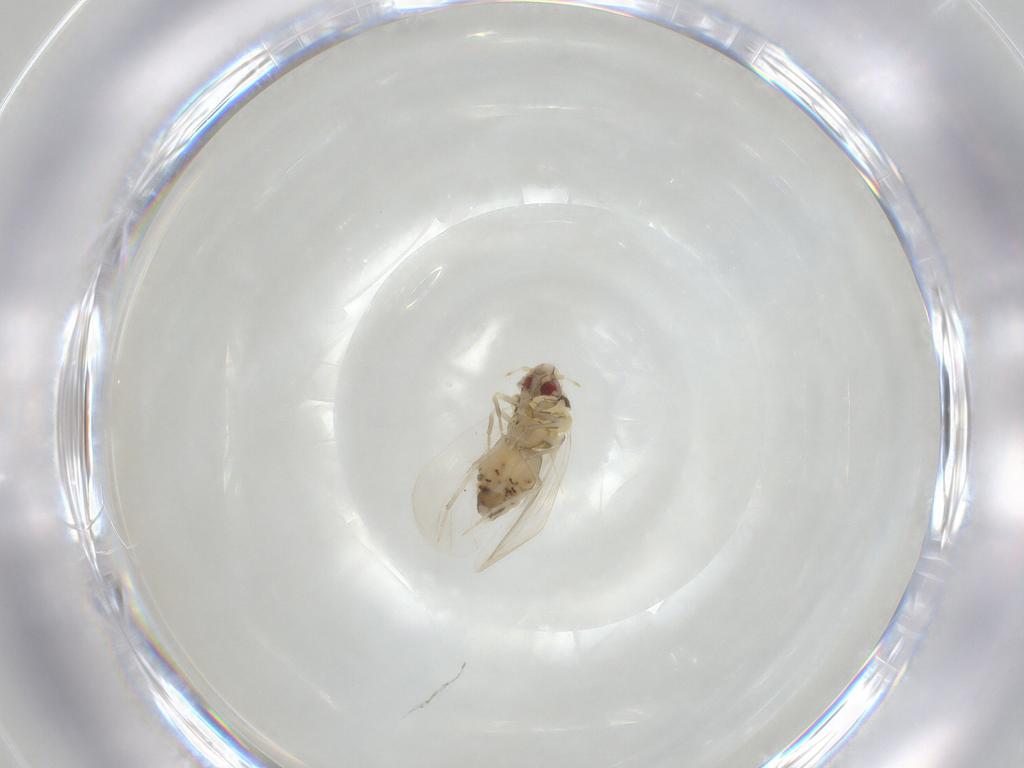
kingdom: Animalia
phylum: Arthropoda
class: Insecta
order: Hemiptera
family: Aleyrodidae
